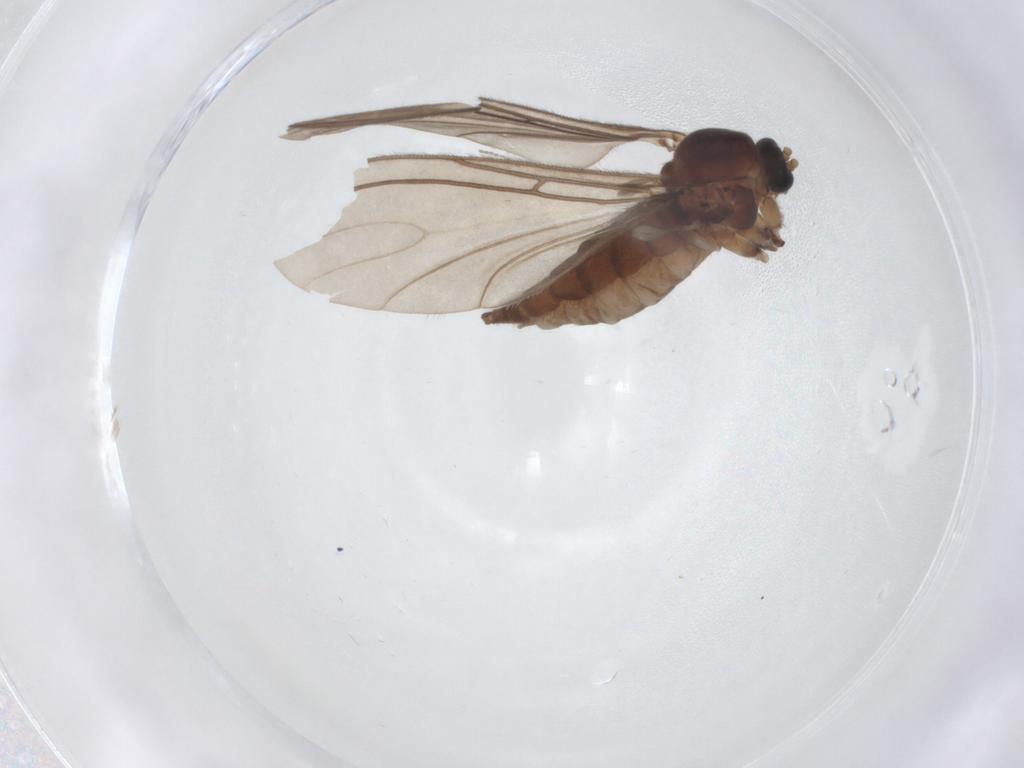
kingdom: Animalia
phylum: Arthropoda
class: Insecta
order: Diptera
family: Sciaridae
